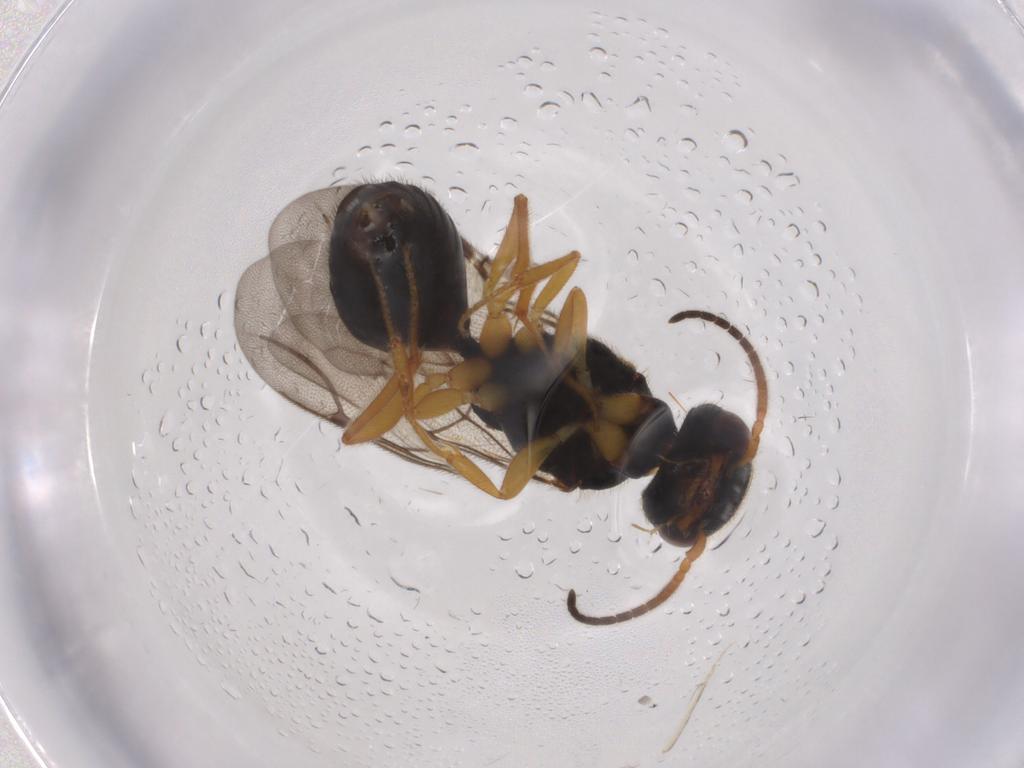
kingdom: Animalia
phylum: Arthropoda
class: Insecta
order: Hymenoptera
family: Bethylidae
